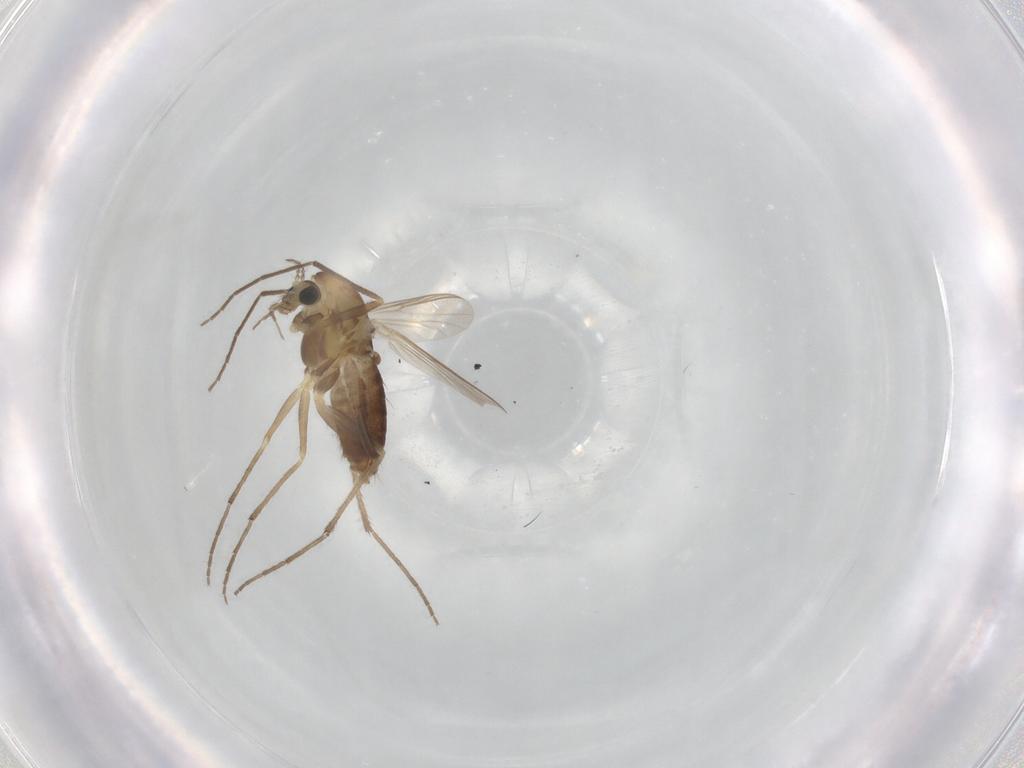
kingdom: Animalia
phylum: Arthropoda
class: Insecta
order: Diptera
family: Chironomidae
